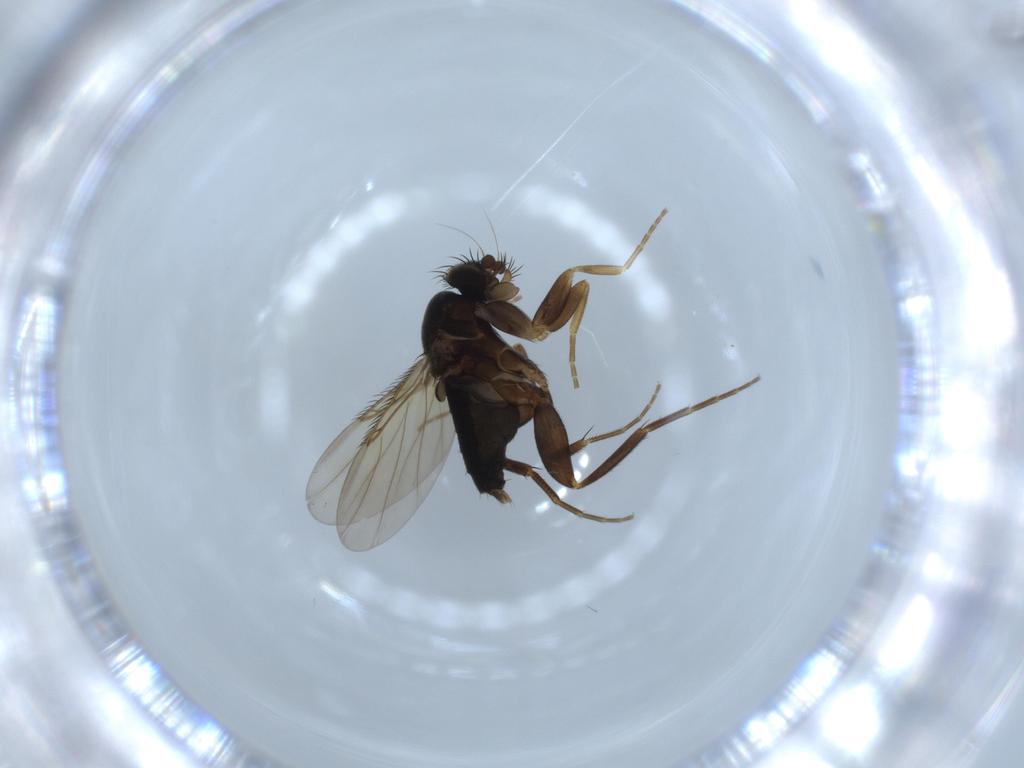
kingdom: Animalia
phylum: Arthropoda
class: Insecta
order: Diptera
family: Phoridae
